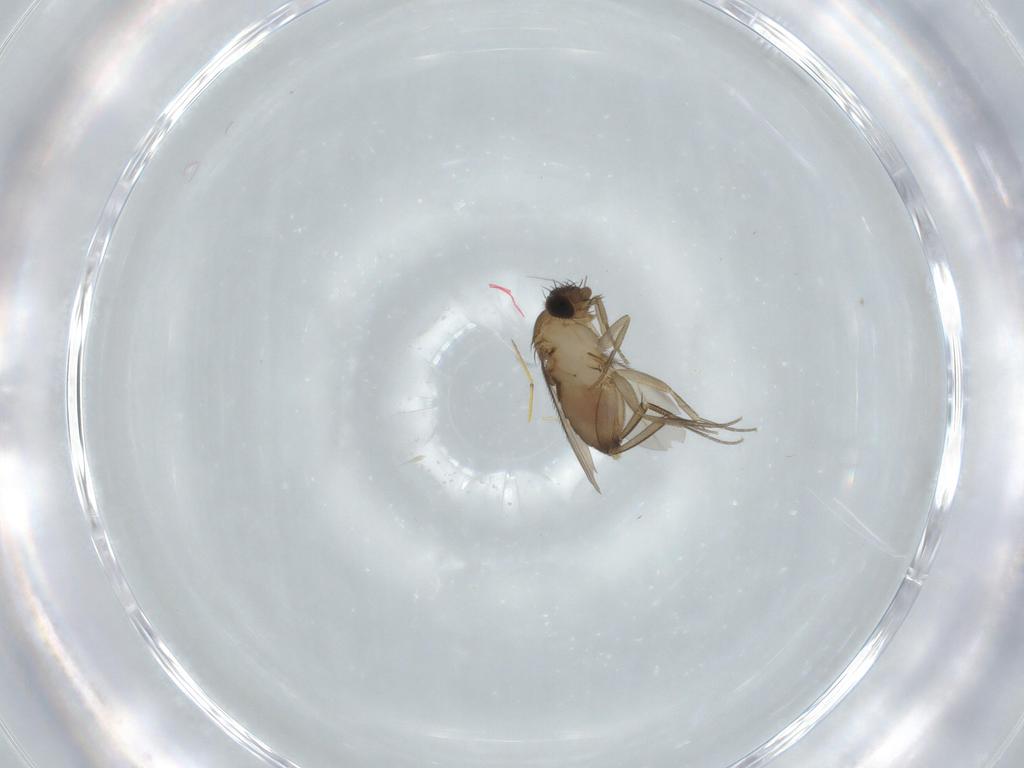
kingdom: Animalia
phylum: Arthropoda
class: Insecta
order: Diptera
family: Phoridae
